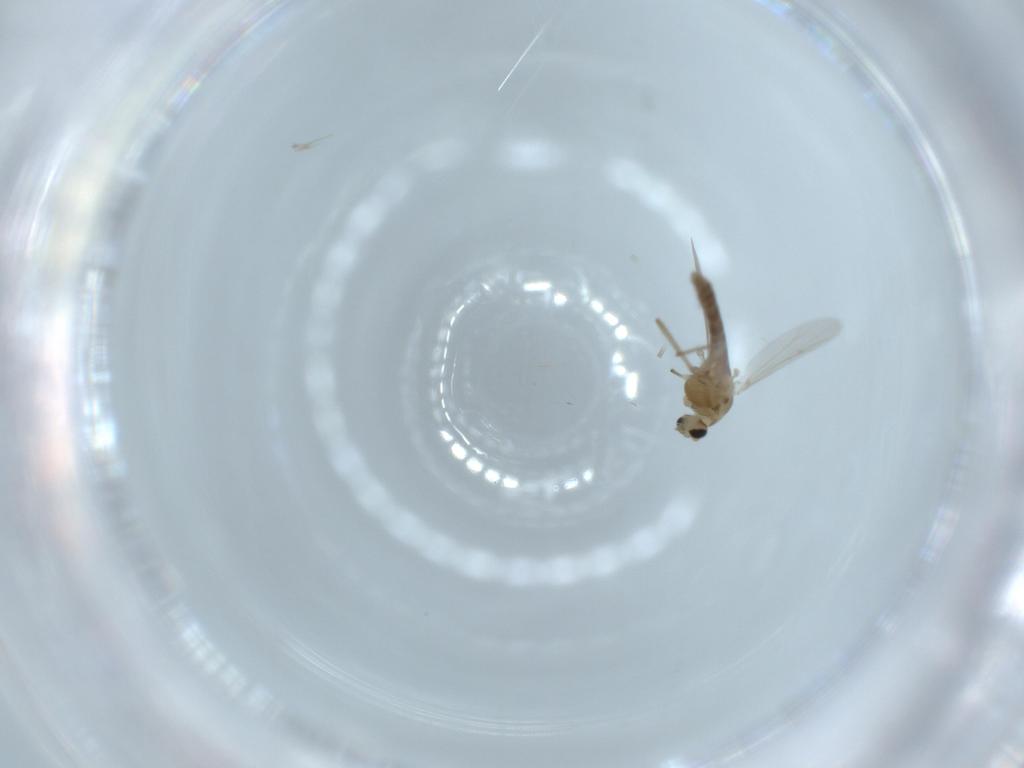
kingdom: Animalia
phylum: Arthropoda
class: Insecta
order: Diptera
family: Chironomidae
